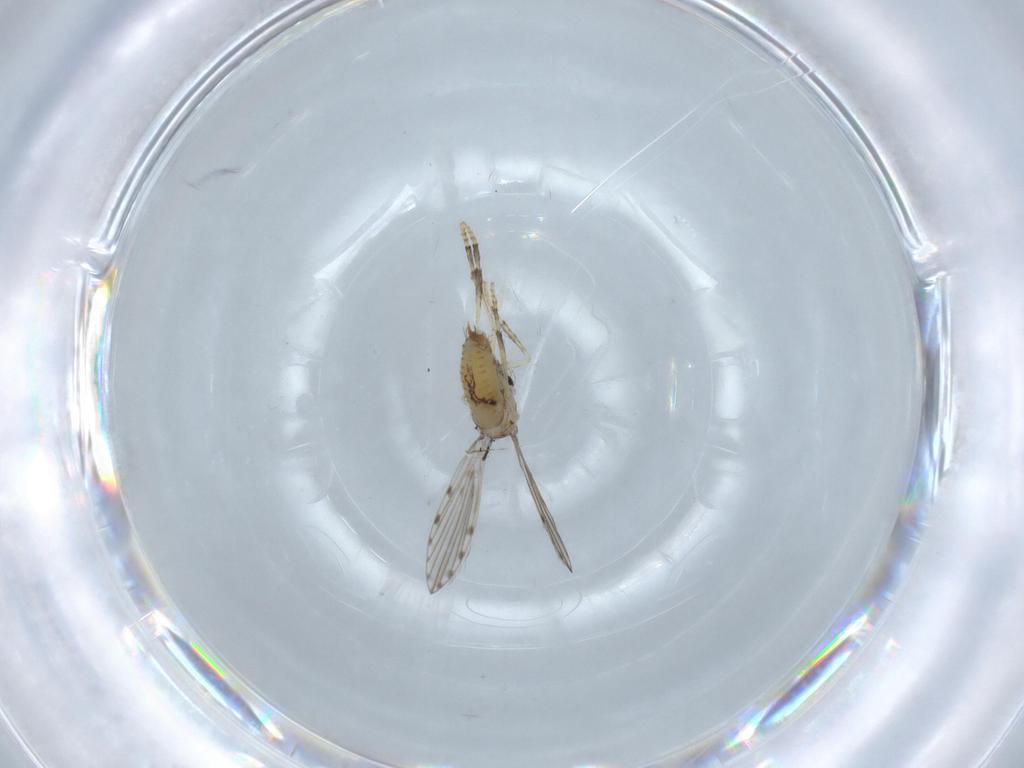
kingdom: Animalia
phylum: Arthropoda
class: Insecta
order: Diptera
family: Cecidomyiidae
